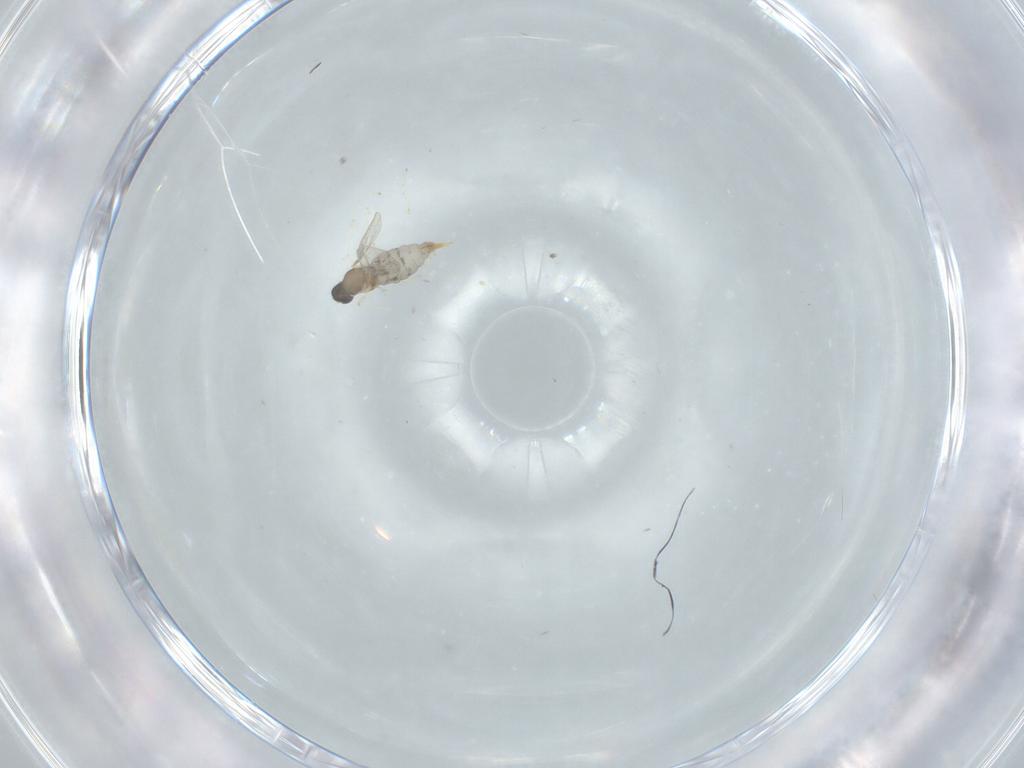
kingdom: Animalia
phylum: Arthropoda
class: Insecta
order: Diptera
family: Cecidomyiidae
